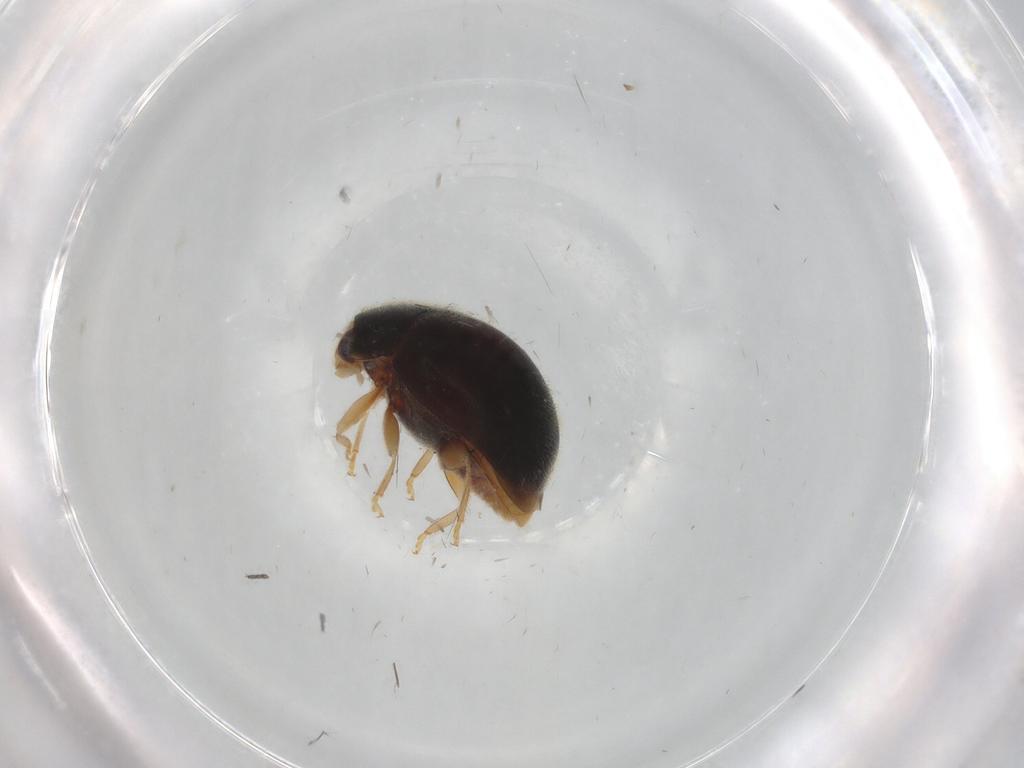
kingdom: Animalia
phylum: Arthropoda
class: Insecta
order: Coleoptera
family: Coccinellidae
